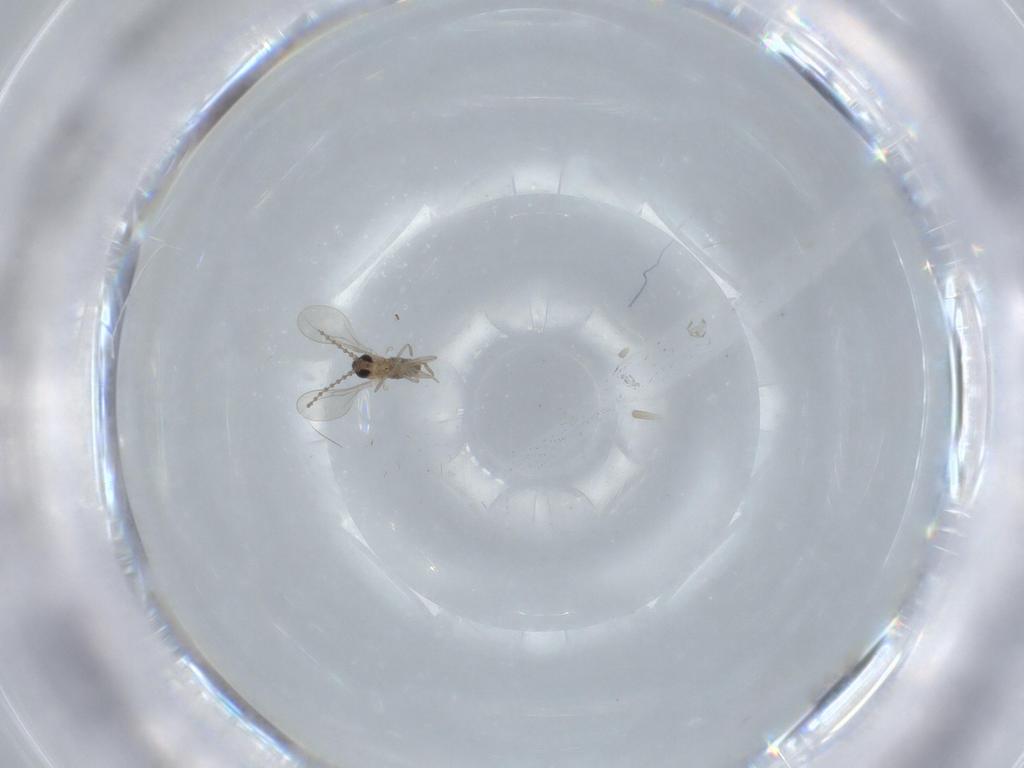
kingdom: Animalia
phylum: Arthropoda
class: Insecta
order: Diptera
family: Cecidomyiidae
